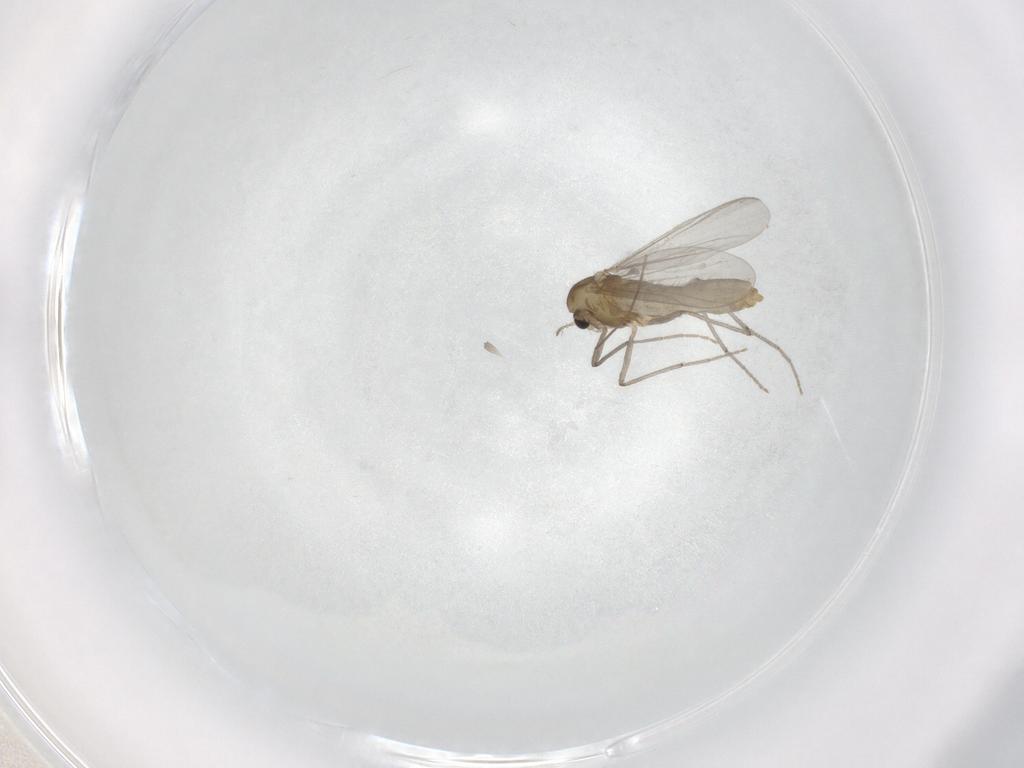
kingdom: Animalia
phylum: Arthropoda
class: Insecta
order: Diptera
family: Chironomidae
